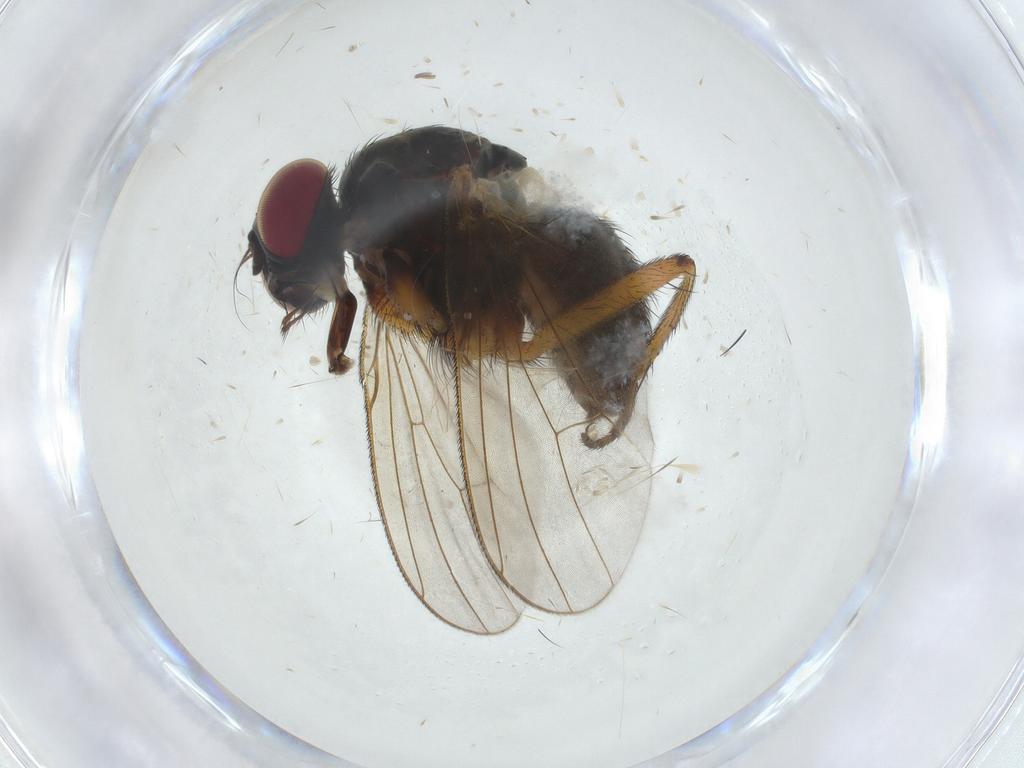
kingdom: Animalia
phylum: Arthropoda
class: Insecta
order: Diptera
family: Muscidae
